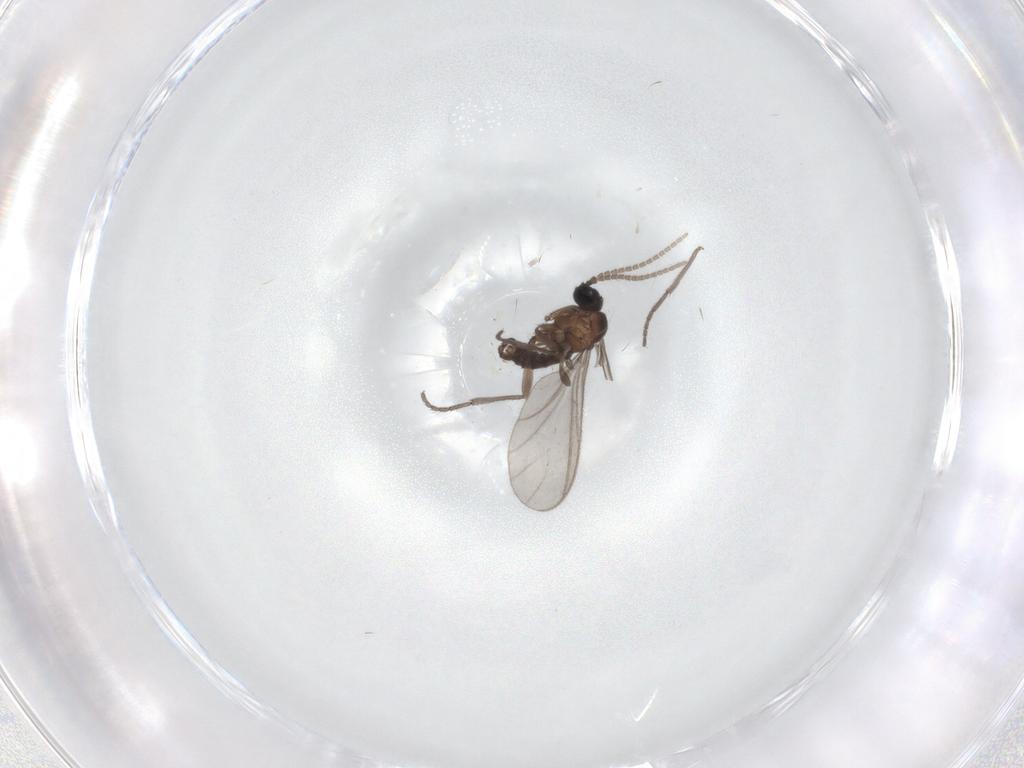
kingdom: Animalia
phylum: Arthropoda
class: Insecta
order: Diptera
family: Sciaridae
